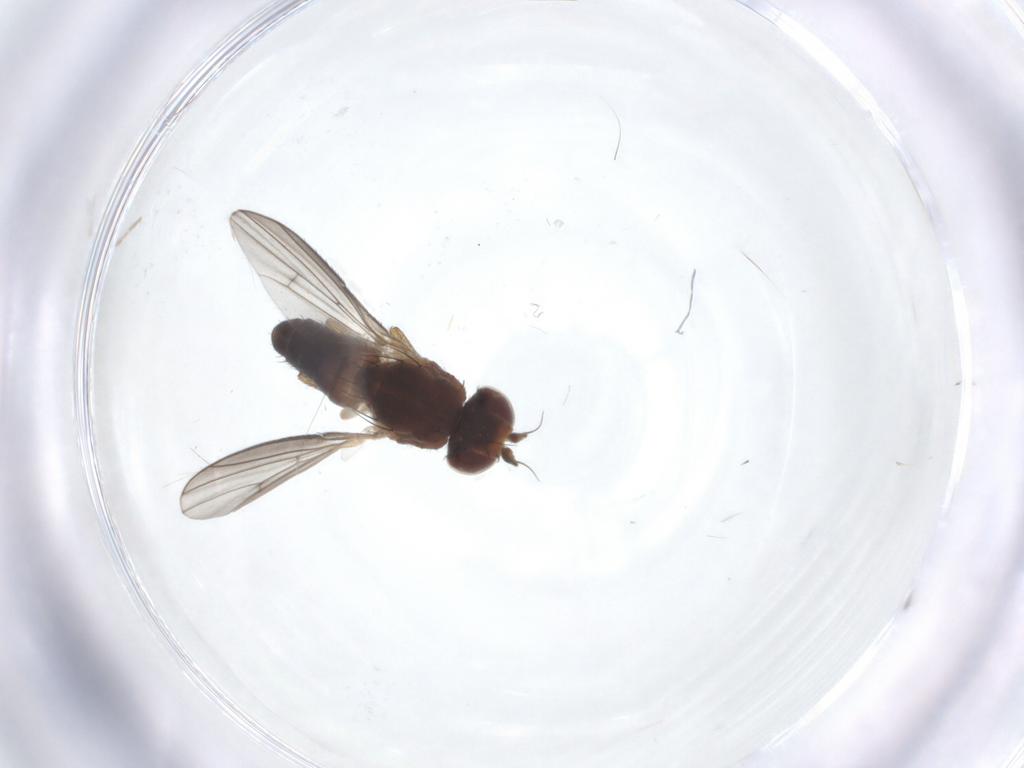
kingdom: Animalia
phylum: Arthropoda
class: Insecta
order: Diptera
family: Heleomyzidae
